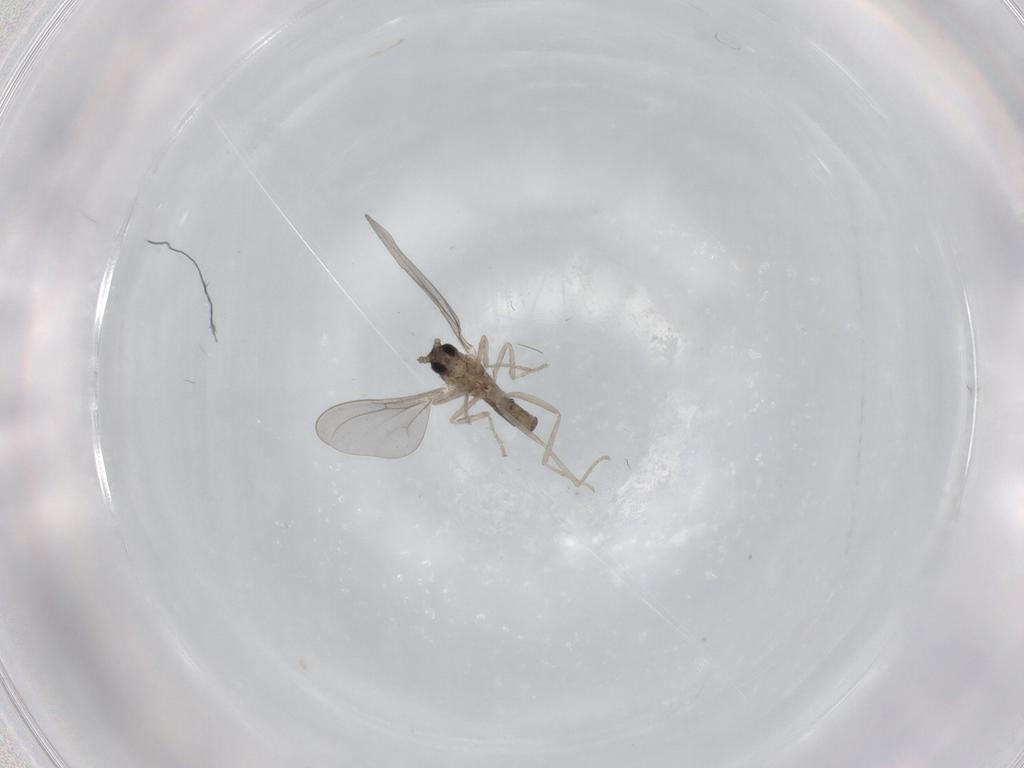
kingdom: Animalia
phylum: Arthropoda
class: Insecta
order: Diptera
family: Cecidomyiidae
